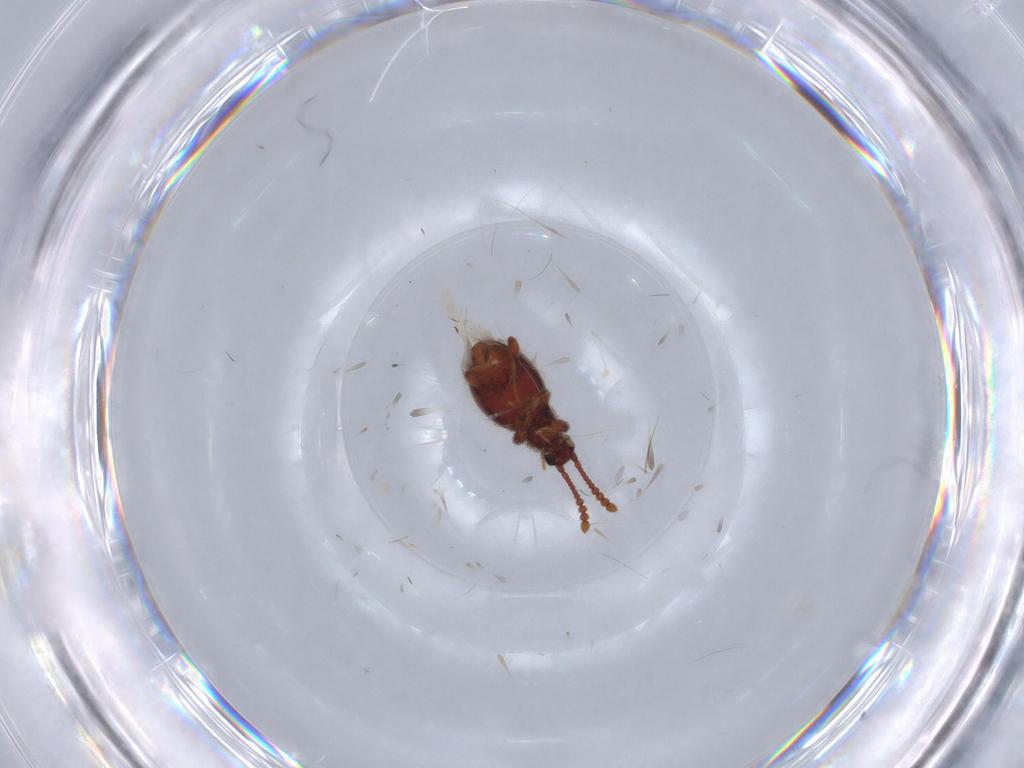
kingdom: Animalia
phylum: Arthropoda
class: Insecta
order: Coleoptera
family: Staphylinidae
